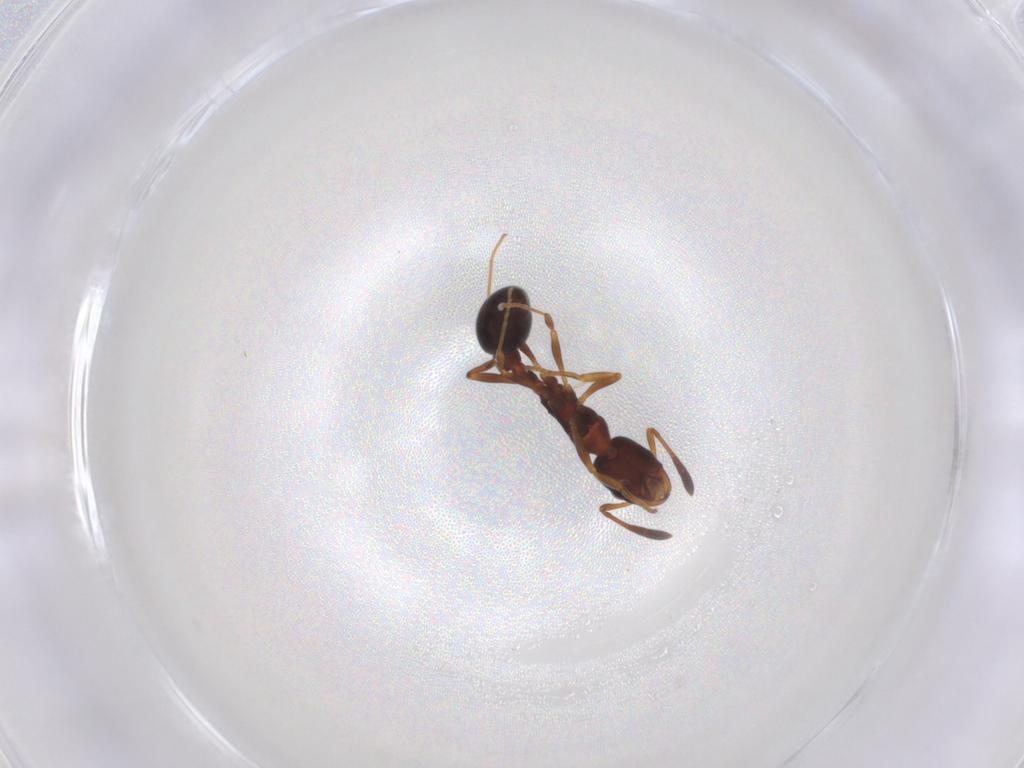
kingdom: Animalia
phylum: Arthropoda
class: Insecta
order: Hymenoptera
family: Formicidae
